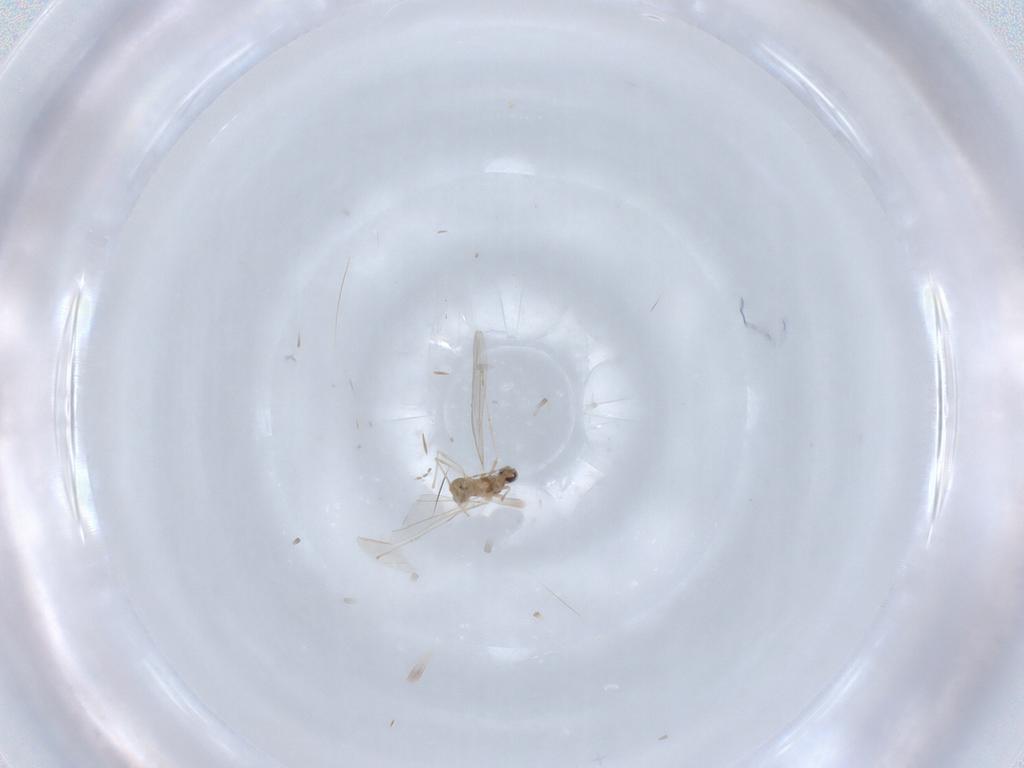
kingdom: Animalia
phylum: Arthropoda
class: Insecta
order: Diptera
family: Cecidomyiidae
